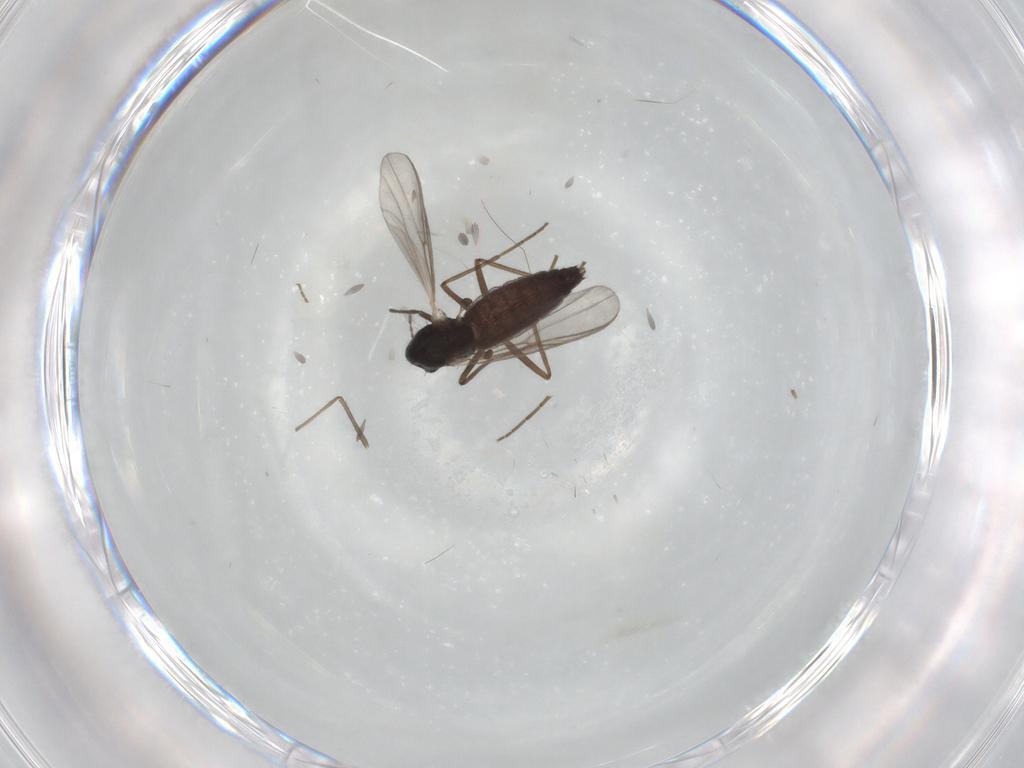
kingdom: Animalia
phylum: Arthropoda
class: Insecta
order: Diptera
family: Chironomidae
